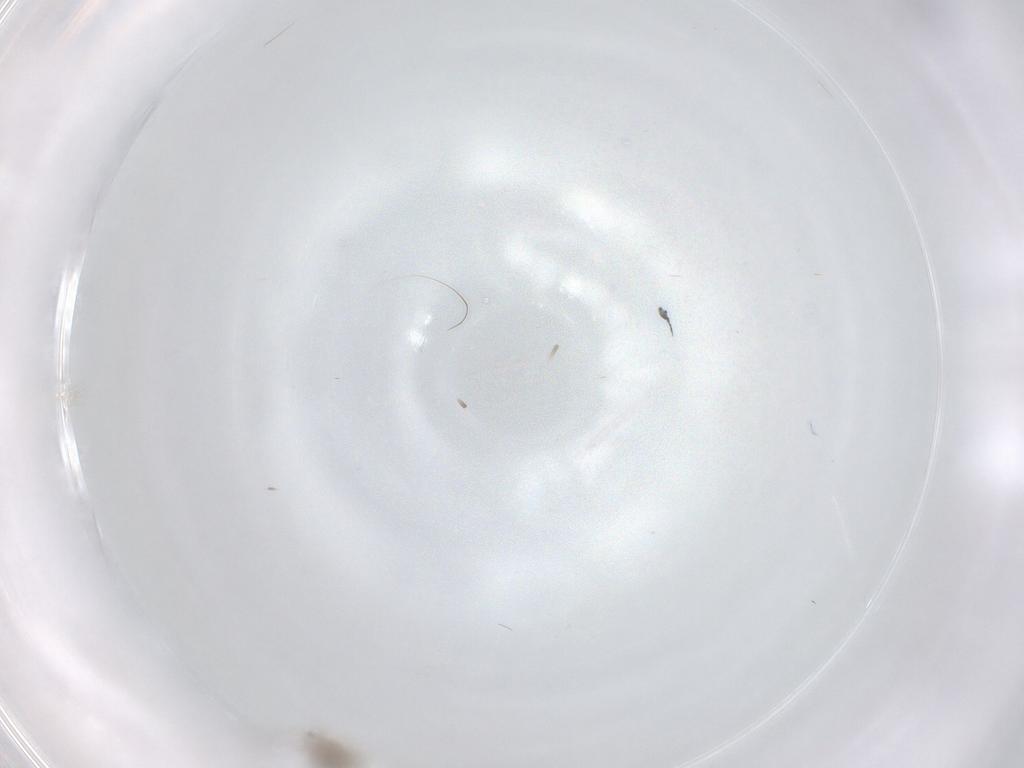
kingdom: Animalia
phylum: Arthropoda
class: Insecta
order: Diptera
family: Cecidomyiidae
